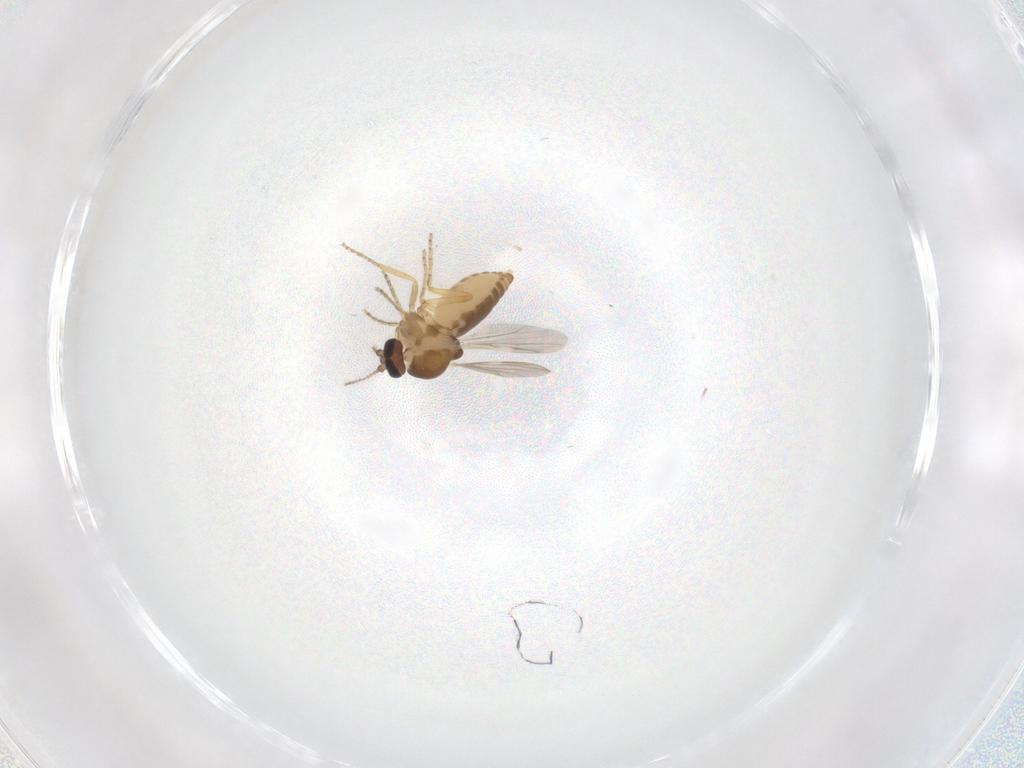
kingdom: Animalia
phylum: Arthropoda
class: Insecta
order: Diptera
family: Ceratopogonidae
